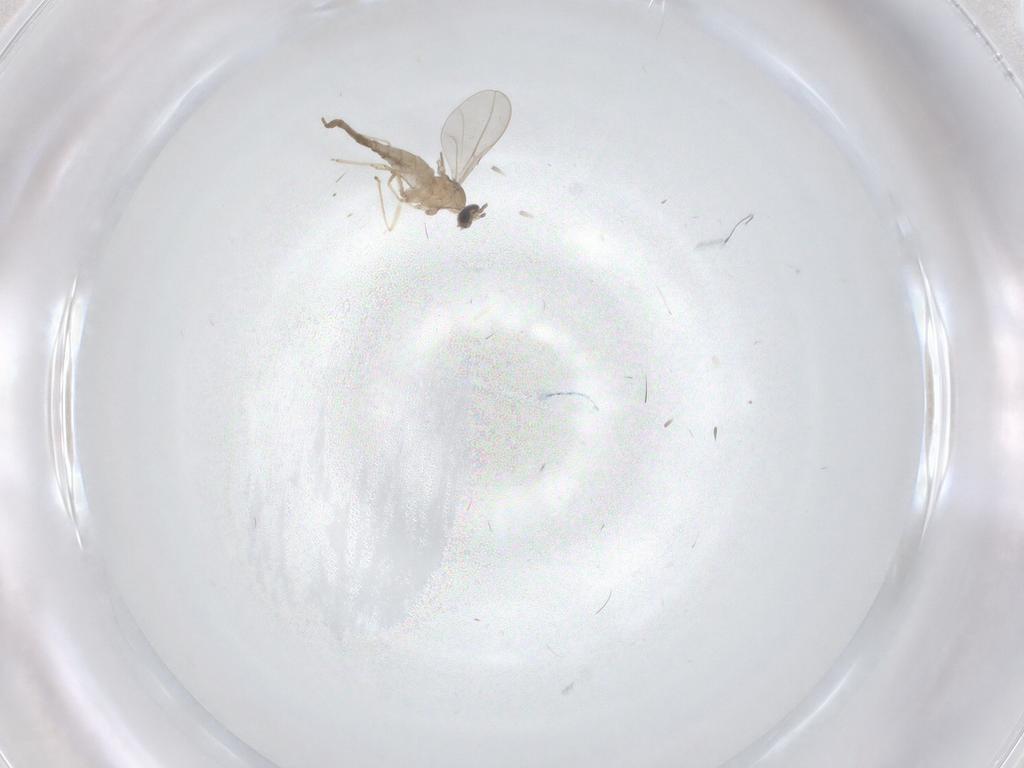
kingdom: Animalia
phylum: Arthropoda
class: Insecta
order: Diptera
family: Cecidomyiidae
